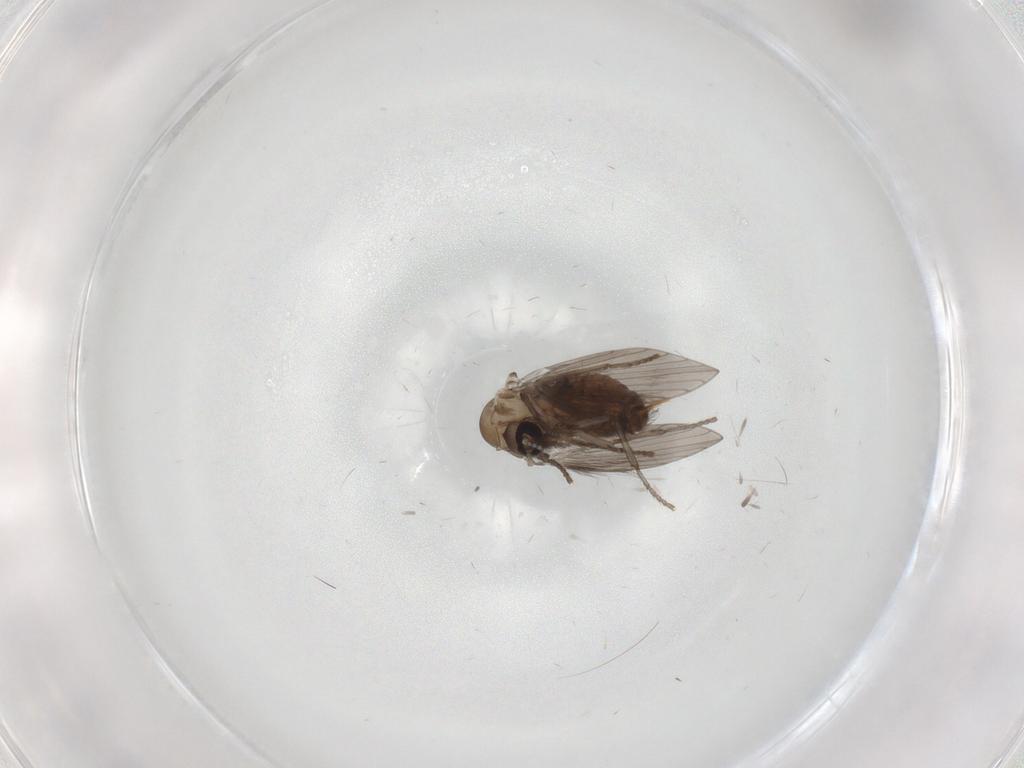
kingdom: Animalia
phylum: Arthropoda
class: Insecta
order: Diptera
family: Psychodidae
